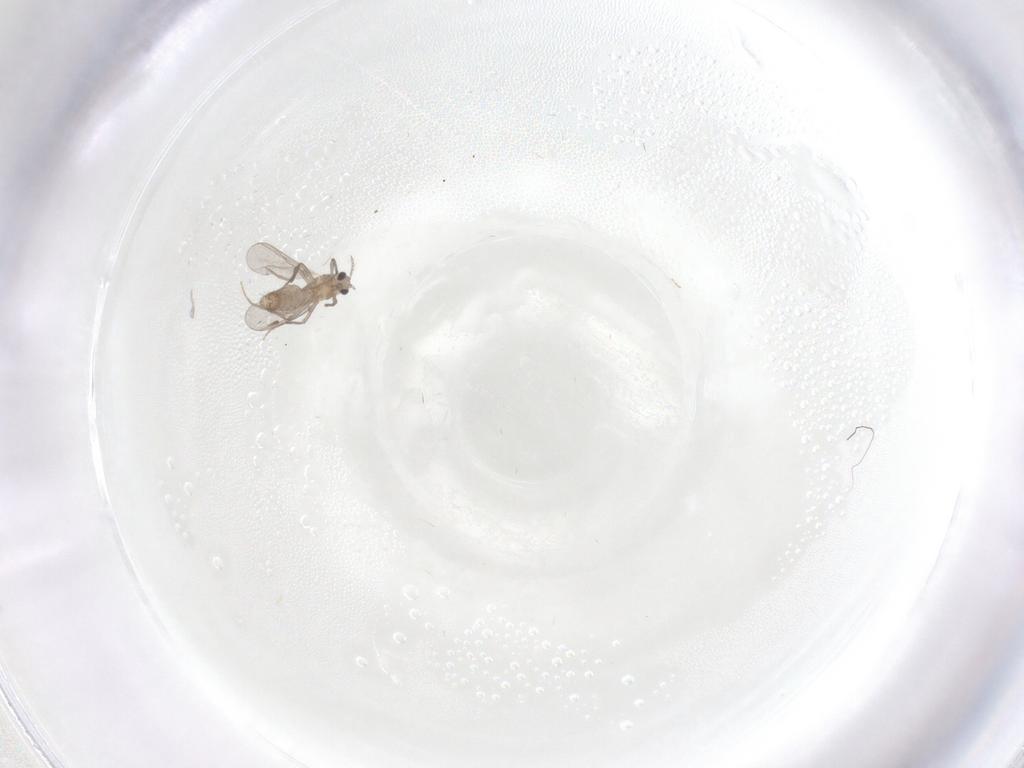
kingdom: Animalia
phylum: Arthropoda
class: Insecta
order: Diptera
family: Chironomidae
